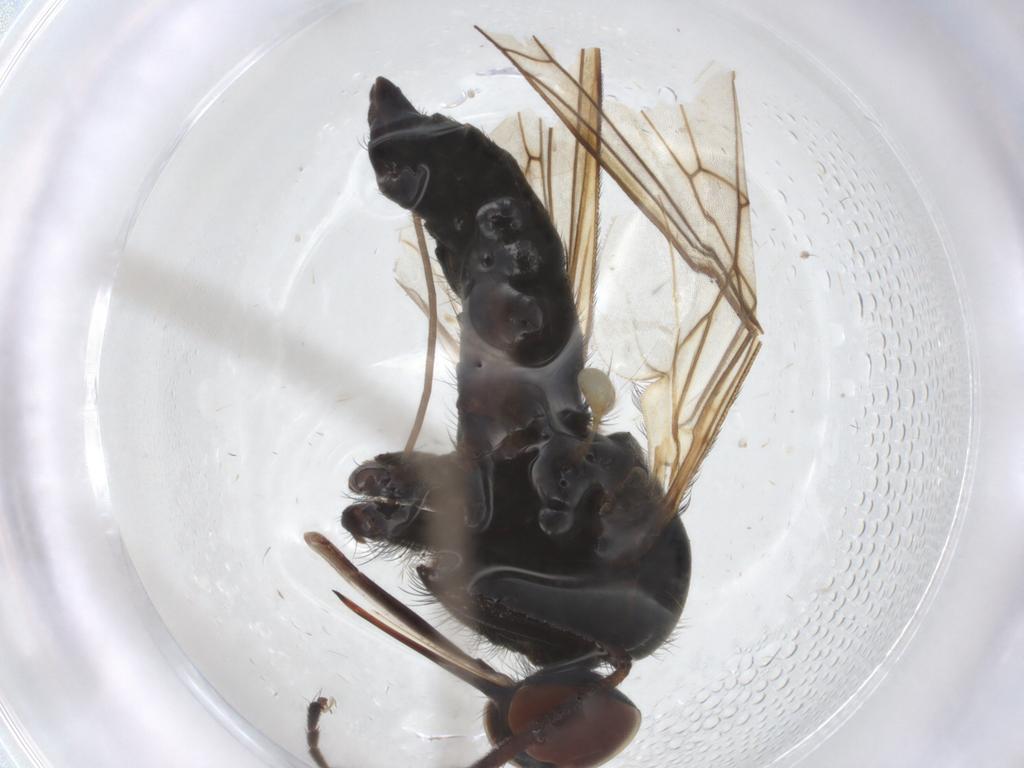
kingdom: Animalia
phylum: Arthropoda
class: Insecta
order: Diptera
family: Empididae
